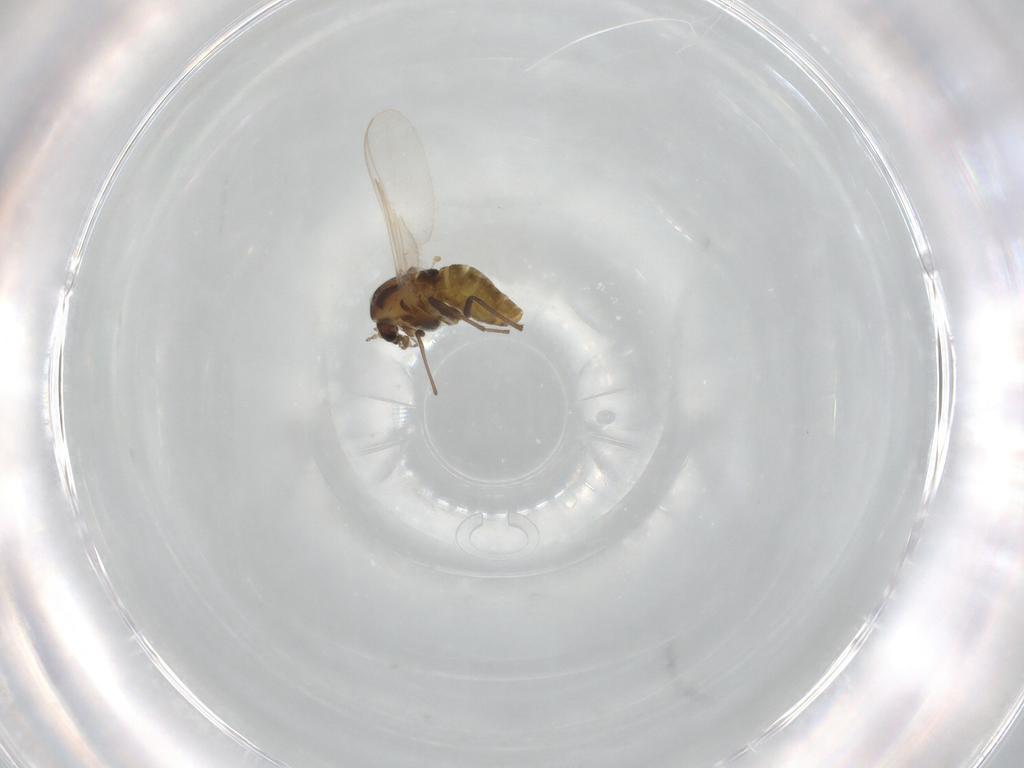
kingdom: Animalia
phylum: Arthropoda
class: Insecta
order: Diptera
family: Chironomidae
